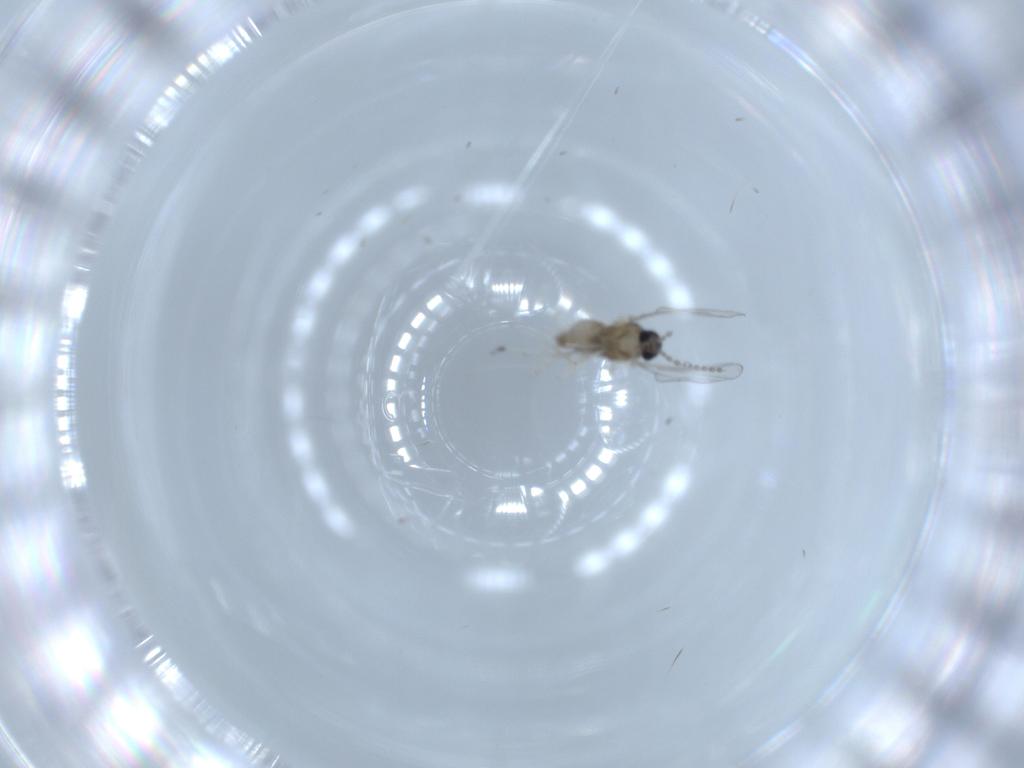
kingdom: Animalia
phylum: Arthropoda
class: Insecta
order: Diptera
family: Cecidomyiidae
